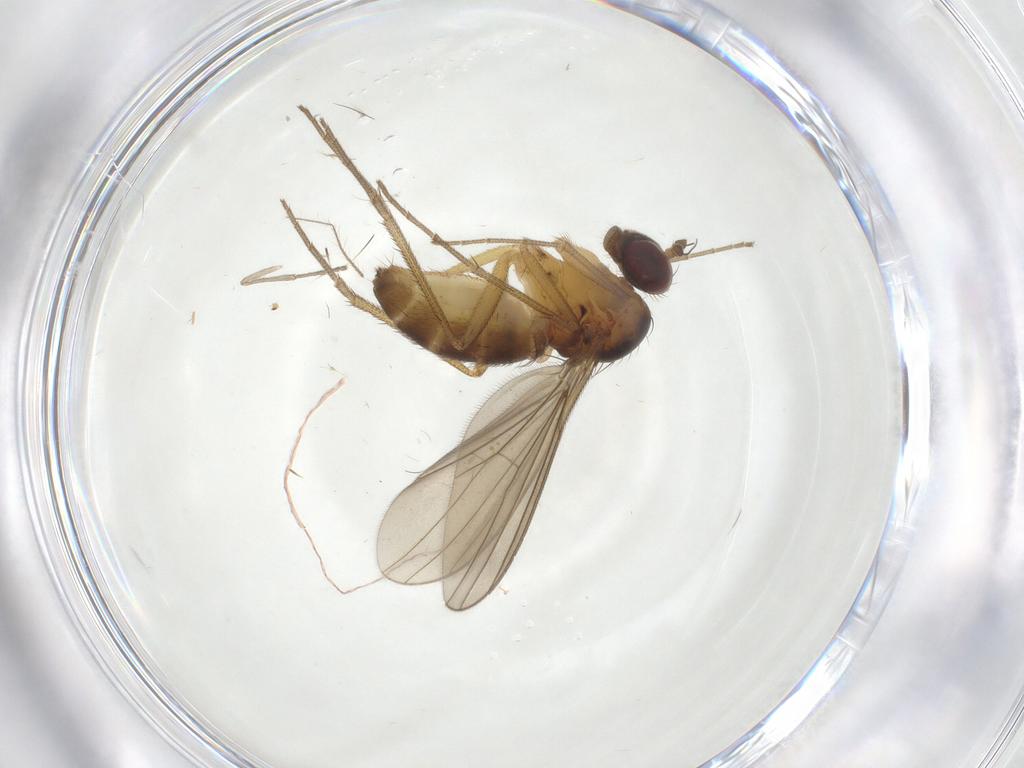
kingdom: Animalia
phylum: Arthropoda
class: Insecta
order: Diptera
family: Dolichopodidae
